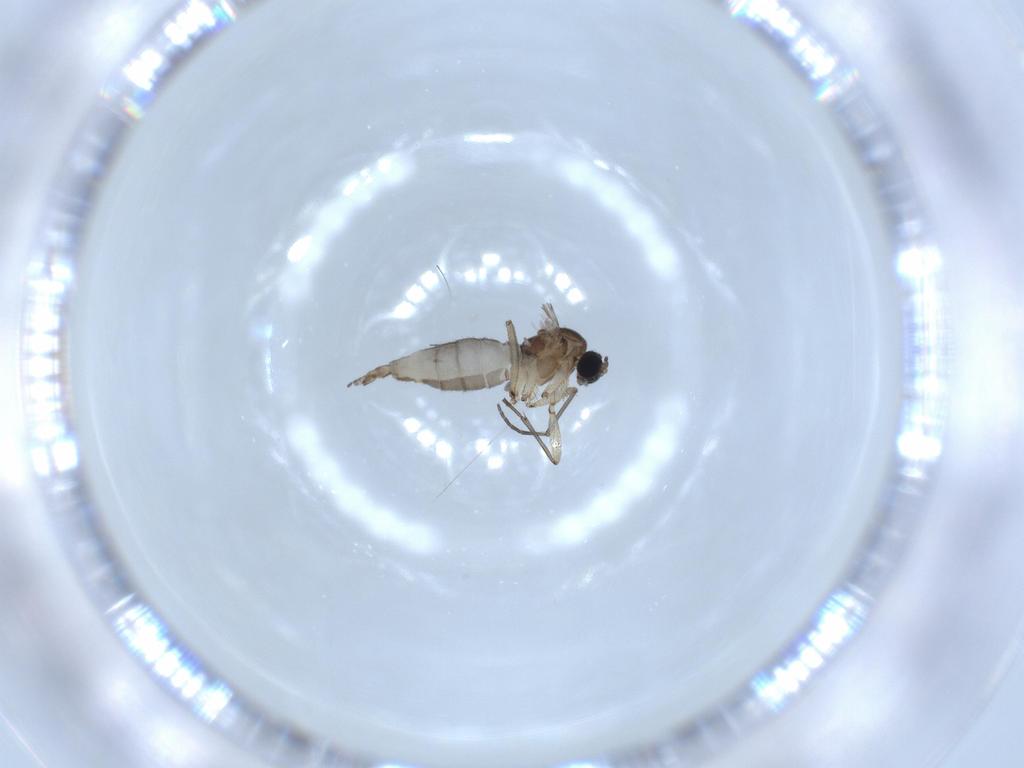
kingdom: Animalia
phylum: Arthropoda
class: Insecta
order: Diptera
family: Sciaridae
